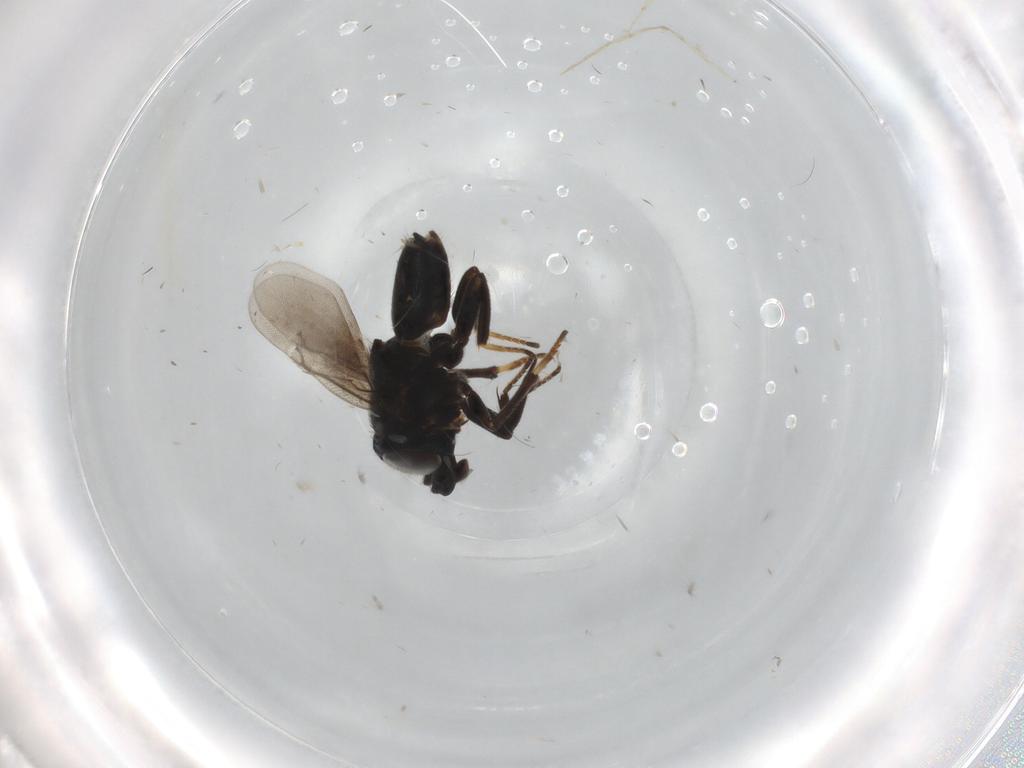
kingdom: Animalia
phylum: Arthropoda
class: Insecta
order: Hymenoptera
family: Encyrtidae
